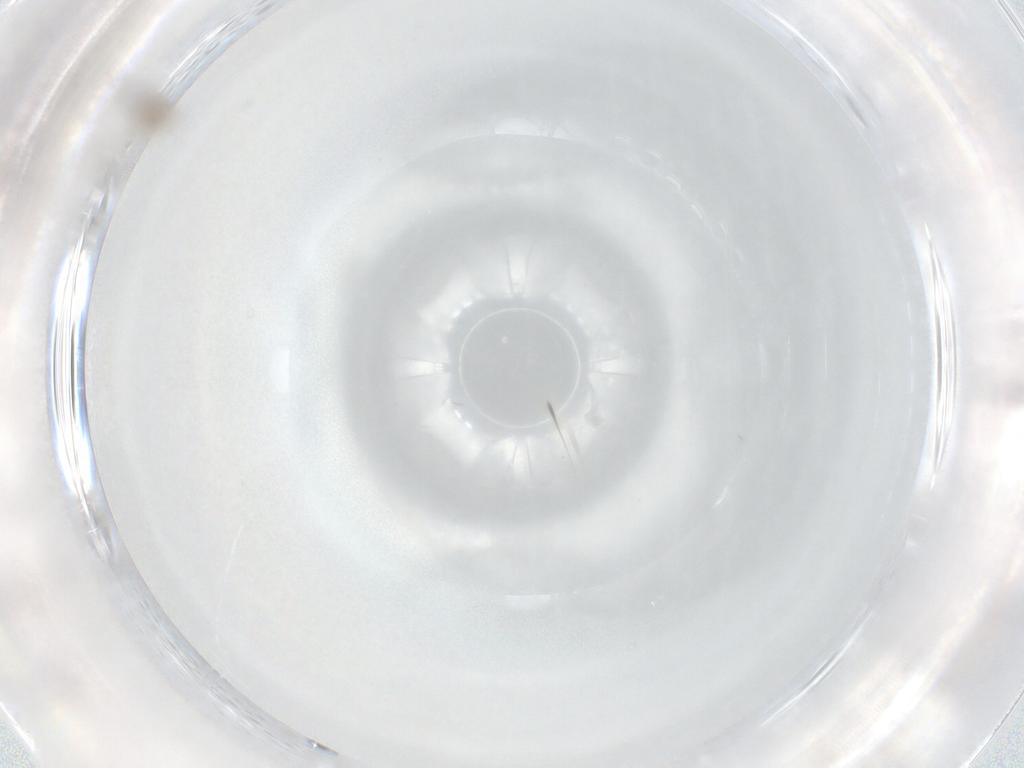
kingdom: Animalia
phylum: Arthropoda
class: Insecta
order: Diptera
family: Cecidomyiidae
